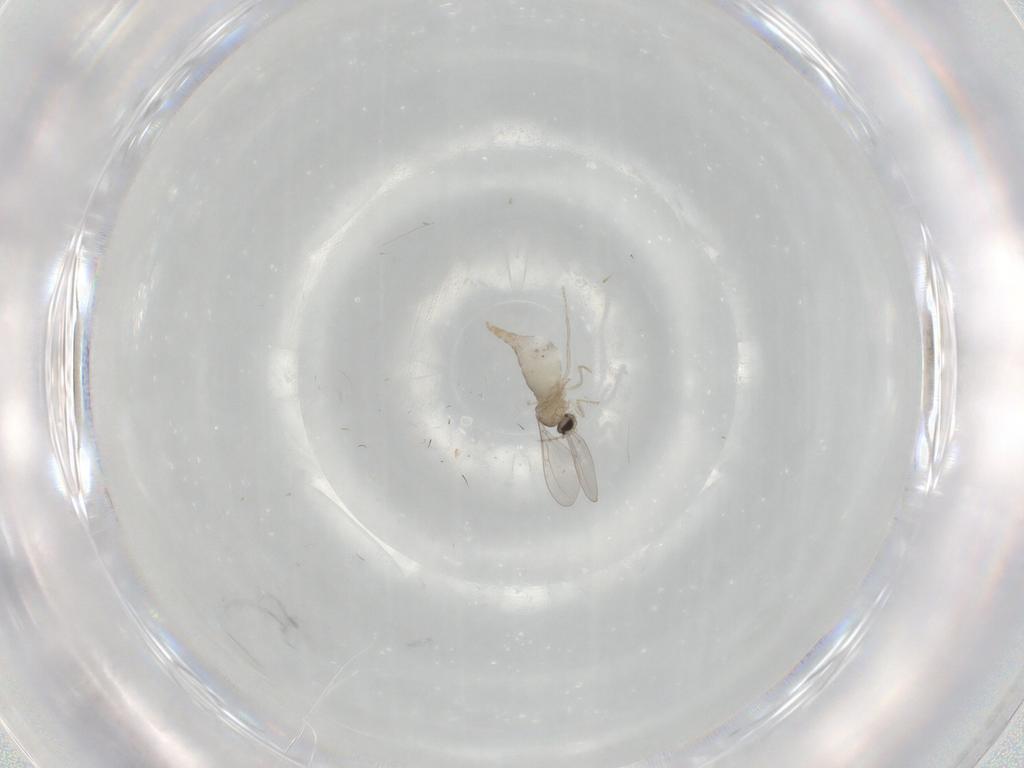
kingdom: Animalia
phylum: Arthropoda
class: Insecta
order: Diptera
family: Cecidomyiidae
